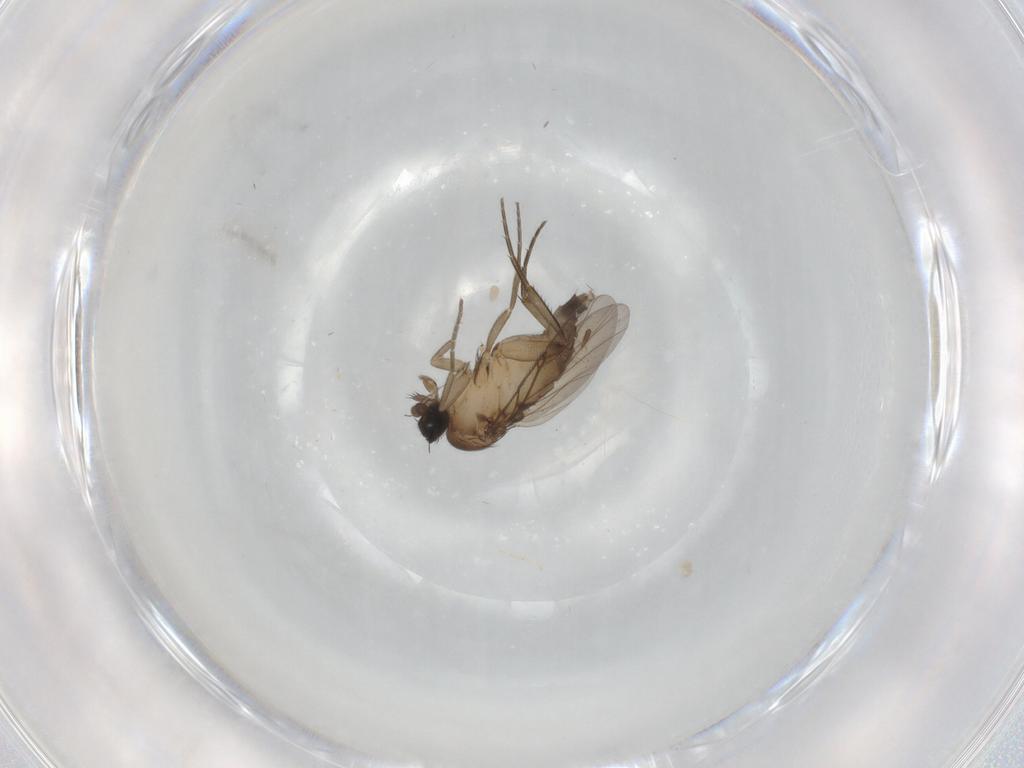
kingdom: Animalia
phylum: Arthropoda
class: Insecta
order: Diptera
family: Phoridae
